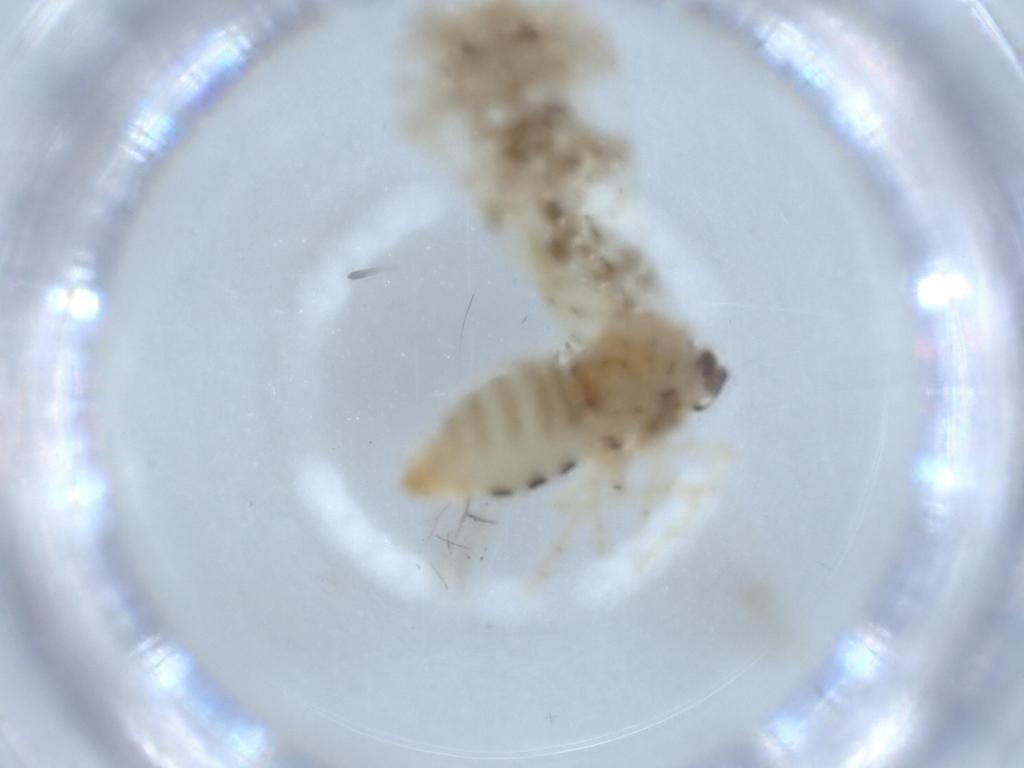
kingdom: Animalia
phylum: Arthropoda
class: Insecta
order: Hemiptera
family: Derbidae
